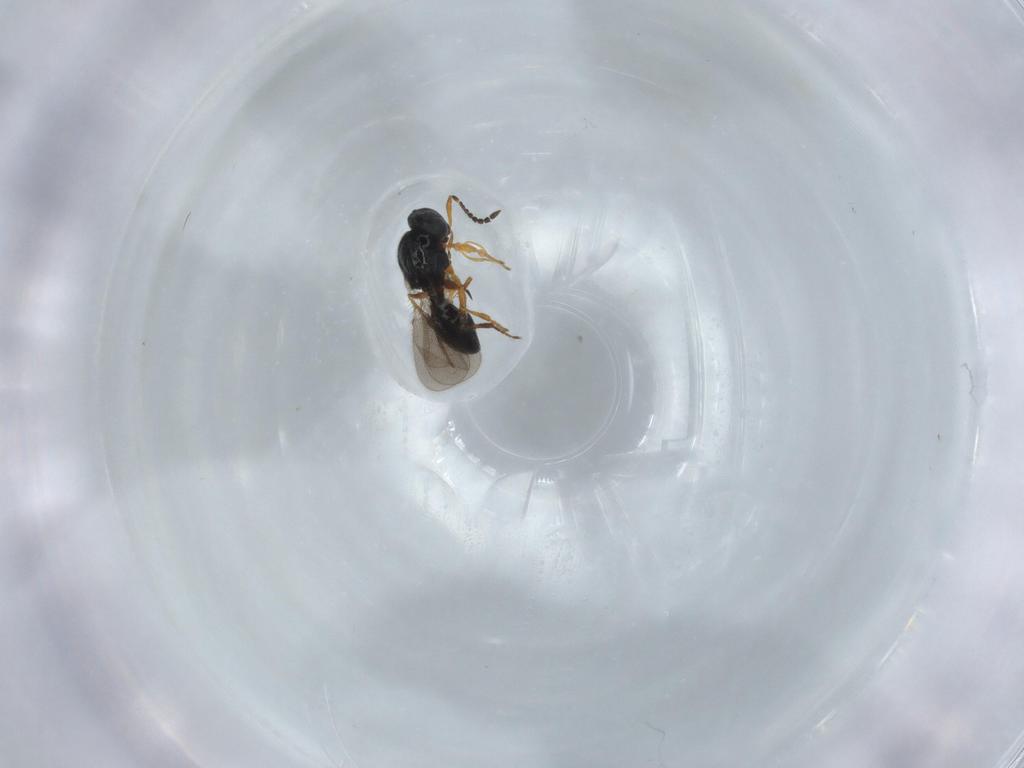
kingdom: Animalia
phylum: Arthropoda
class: Insecta
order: Hymenoptera
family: Platygastridae
